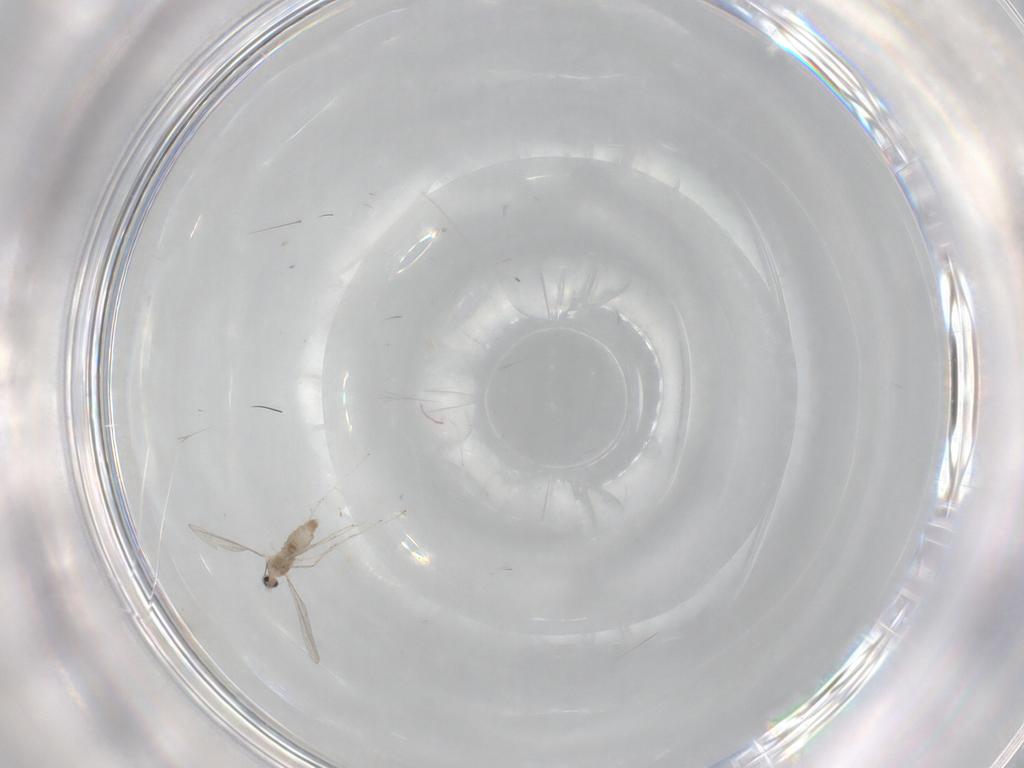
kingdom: Animalia
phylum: Arthropoda
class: Insecta
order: Diptera
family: Cecidomyiidae
